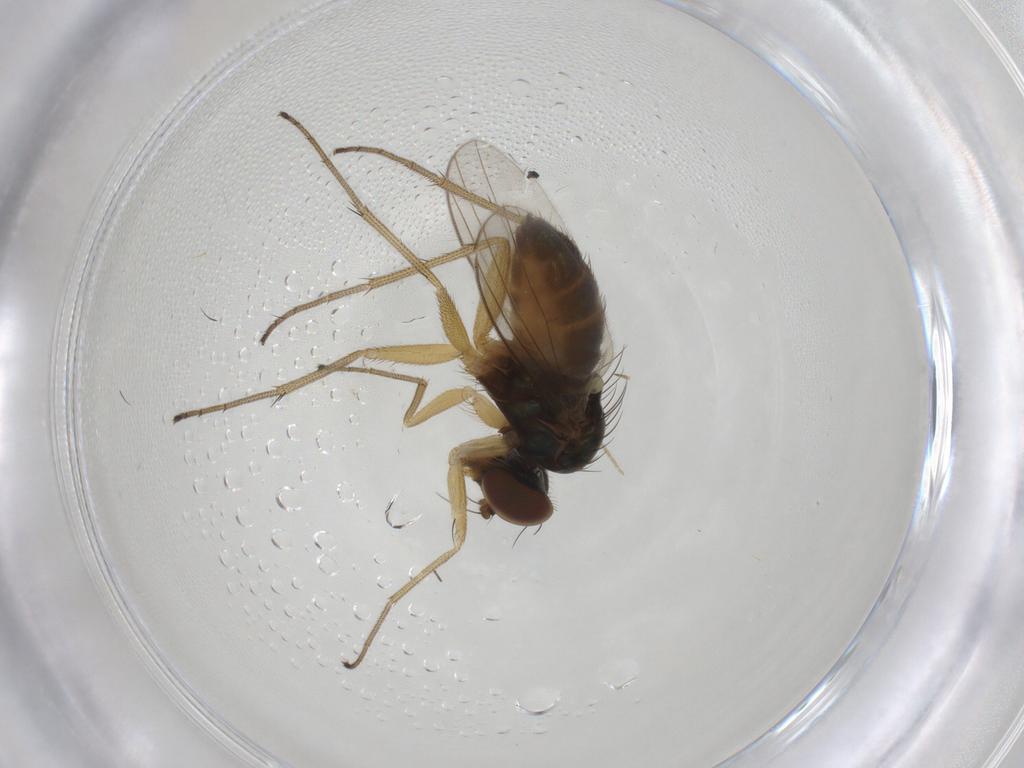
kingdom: Animalia
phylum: Arthropoda
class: Insecta
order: Diptera
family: Dolichopodidae
